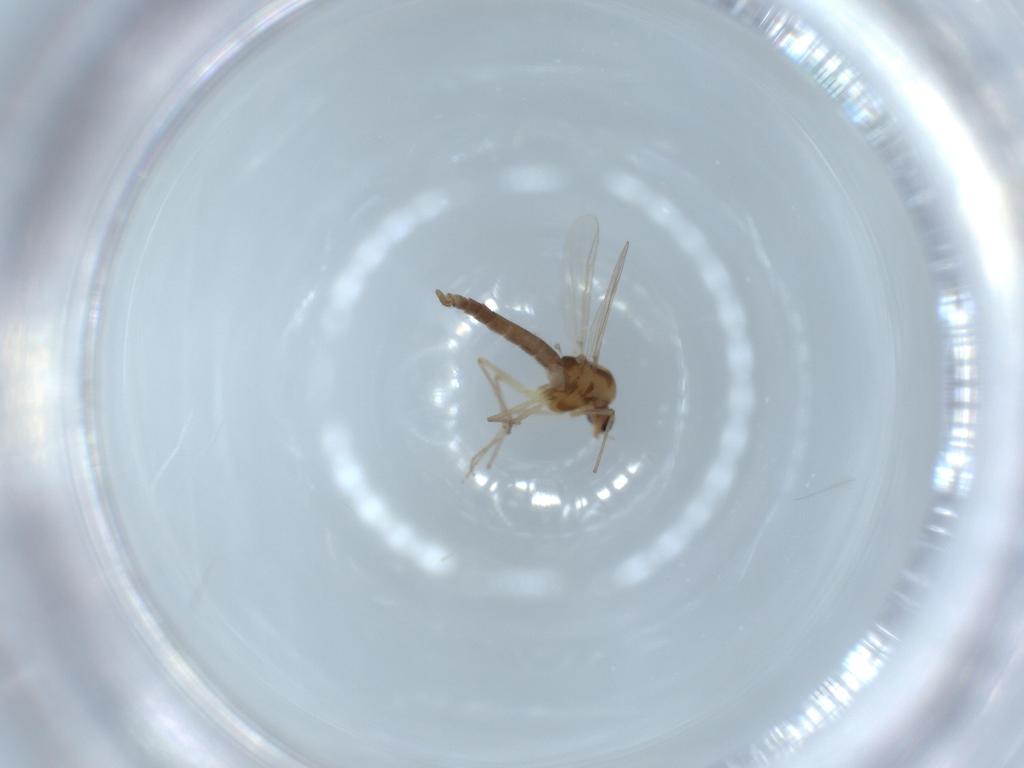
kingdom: Animalia
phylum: Arthropoda
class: Insecta
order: Diptera
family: Chironomidae
